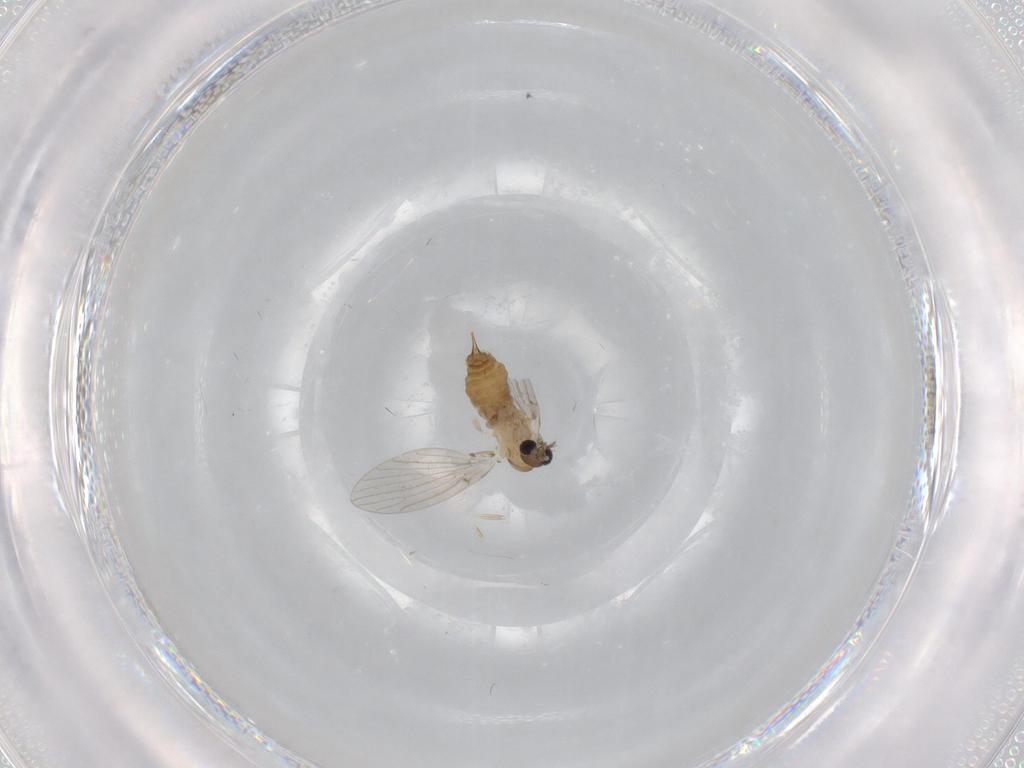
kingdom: Animalia
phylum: Arthropoda
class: Insecta
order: Diptera
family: Psychodidae
